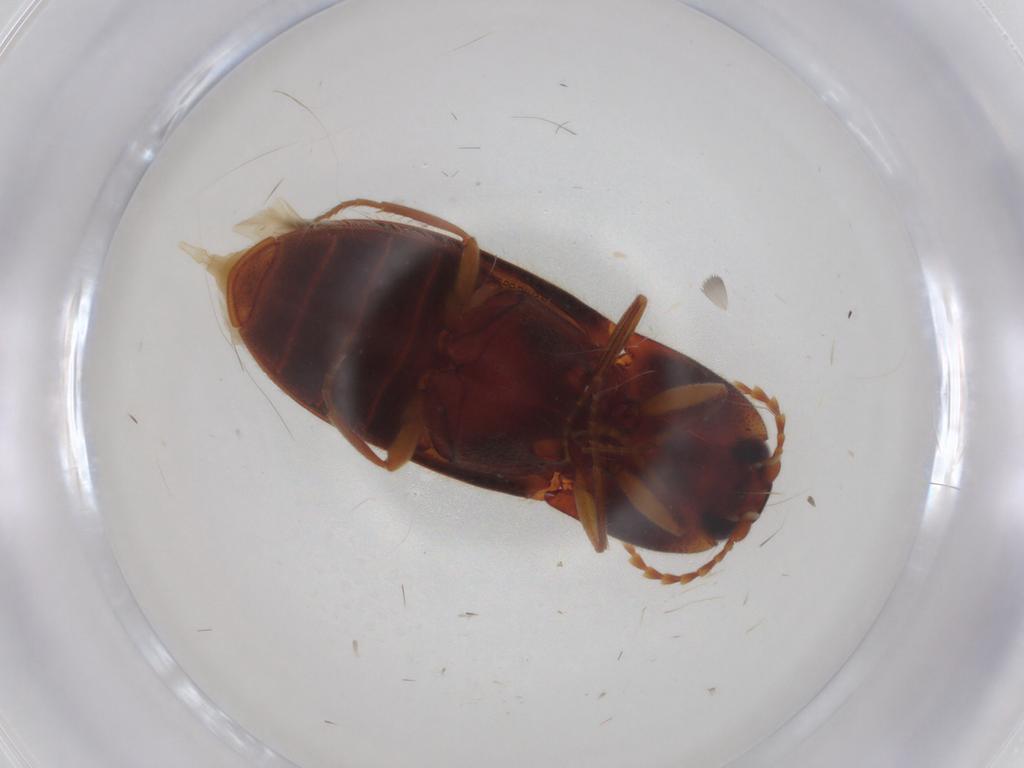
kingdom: Animalia
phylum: Arthropoda
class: Insecta
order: Coleoptera
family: Elateridae
